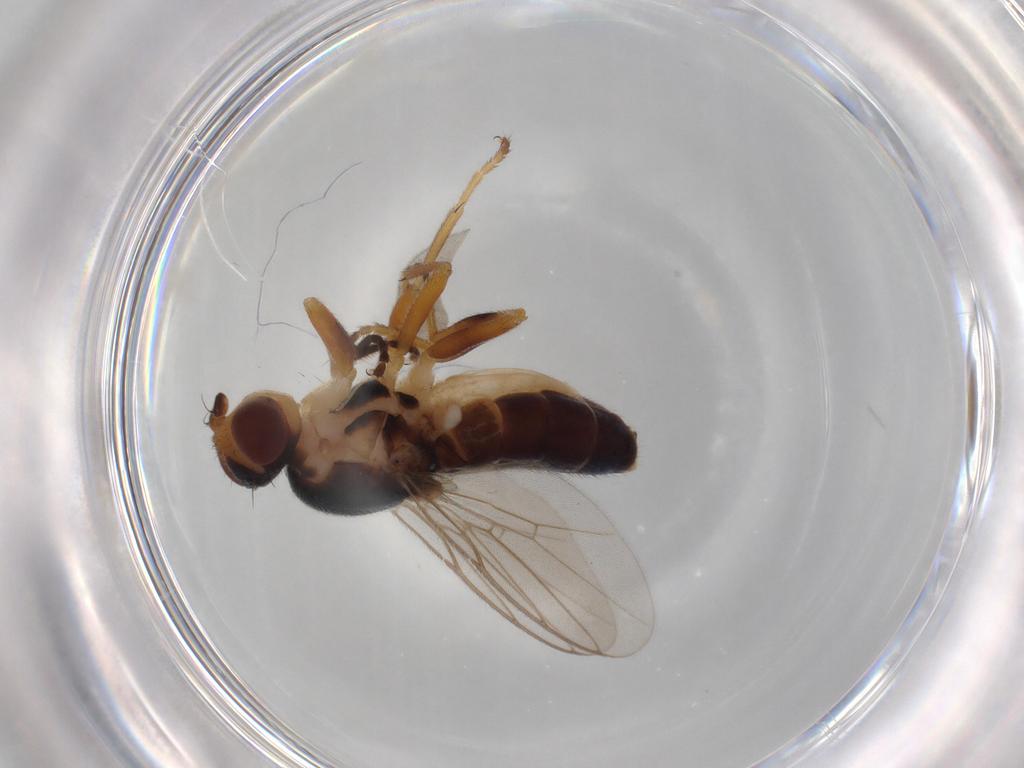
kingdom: Animalia
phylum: Arthropoda
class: Insecta
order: Diptera
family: Chloropidae
